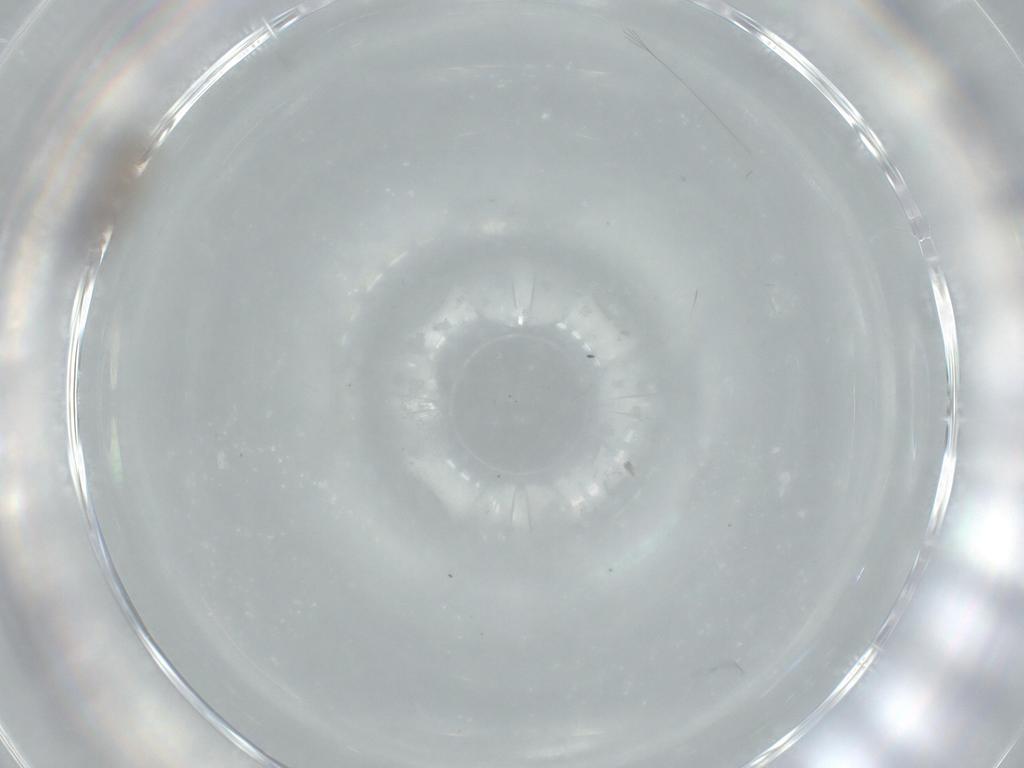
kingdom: Animalia
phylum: Arthropoda
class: Insecta
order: Diptera
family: Cecidomyiidae
